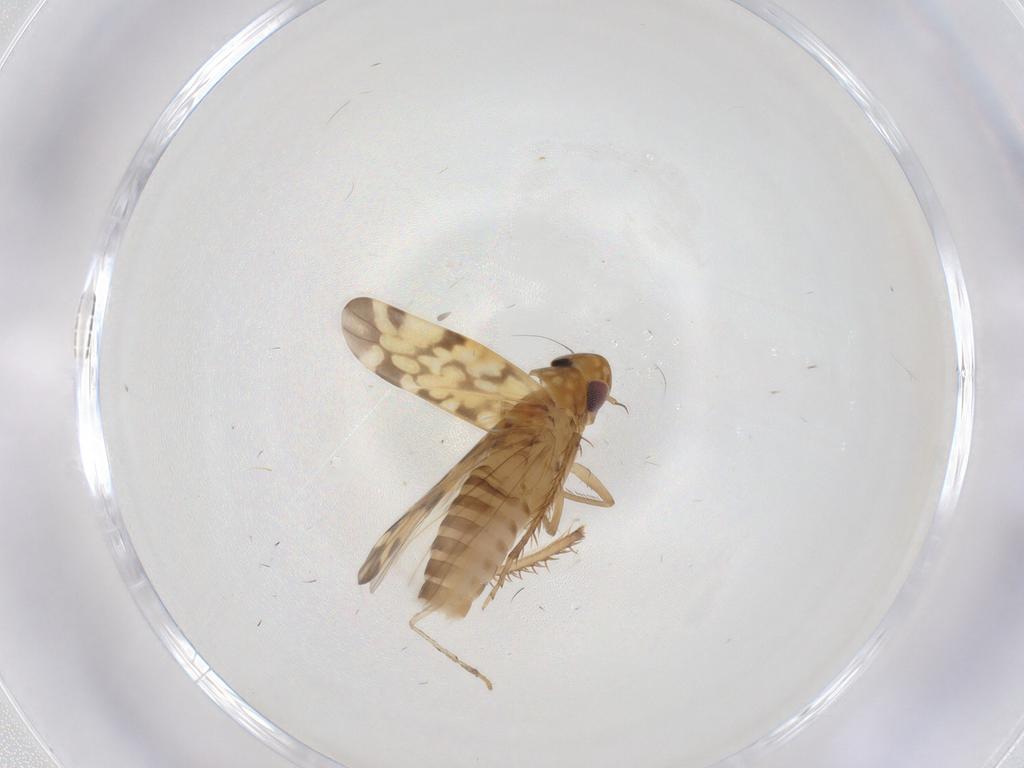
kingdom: Animalia
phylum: Arthropoda
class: Insecta
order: Hemiptera
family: Cicadellidae
